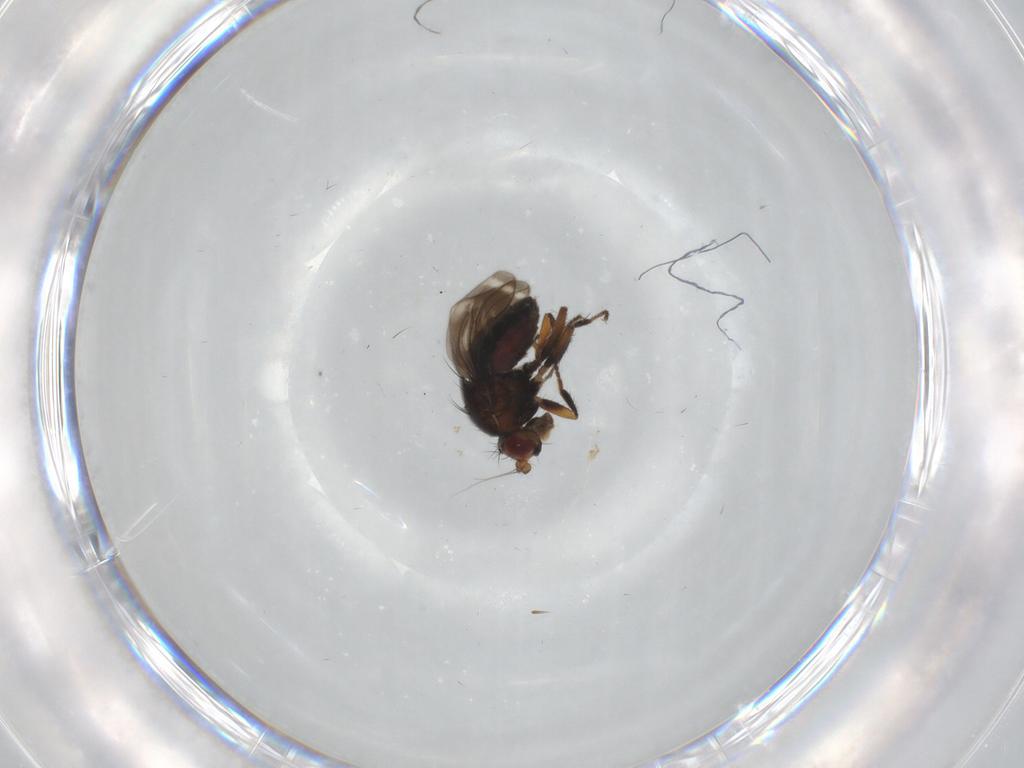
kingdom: Animalia
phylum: Arthropoda
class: Insecta
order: Diptera
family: Sphaeroceridae
